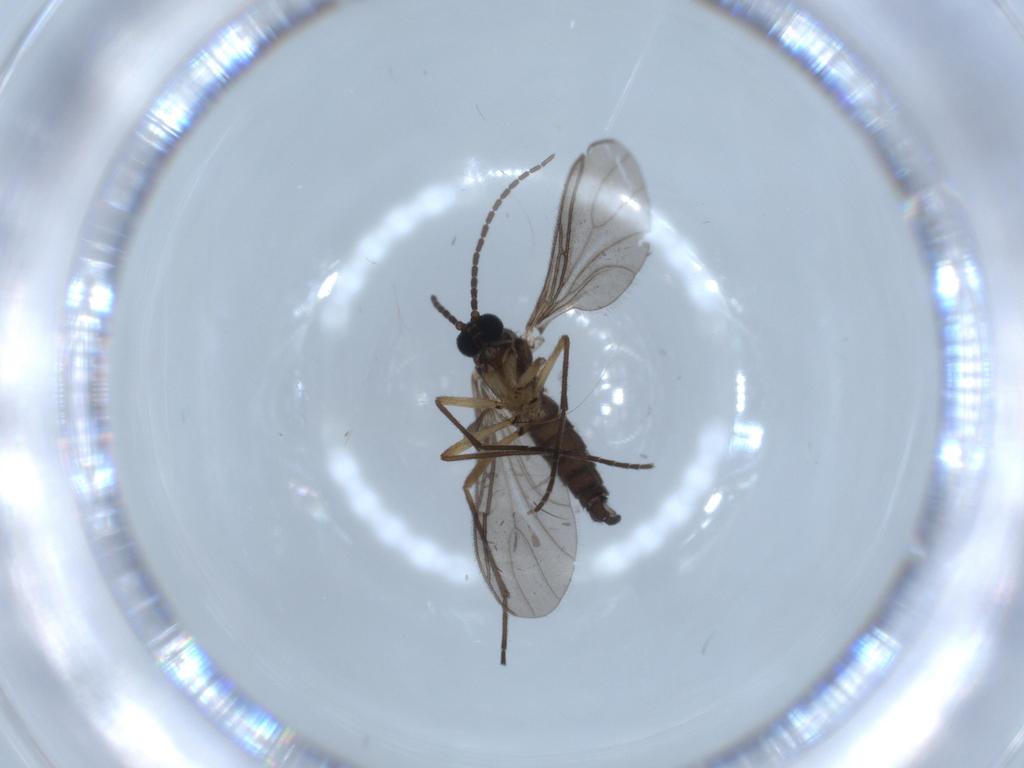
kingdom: Animalia
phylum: Arthropoda
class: Insecta
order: Diptera
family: Sciaridae
